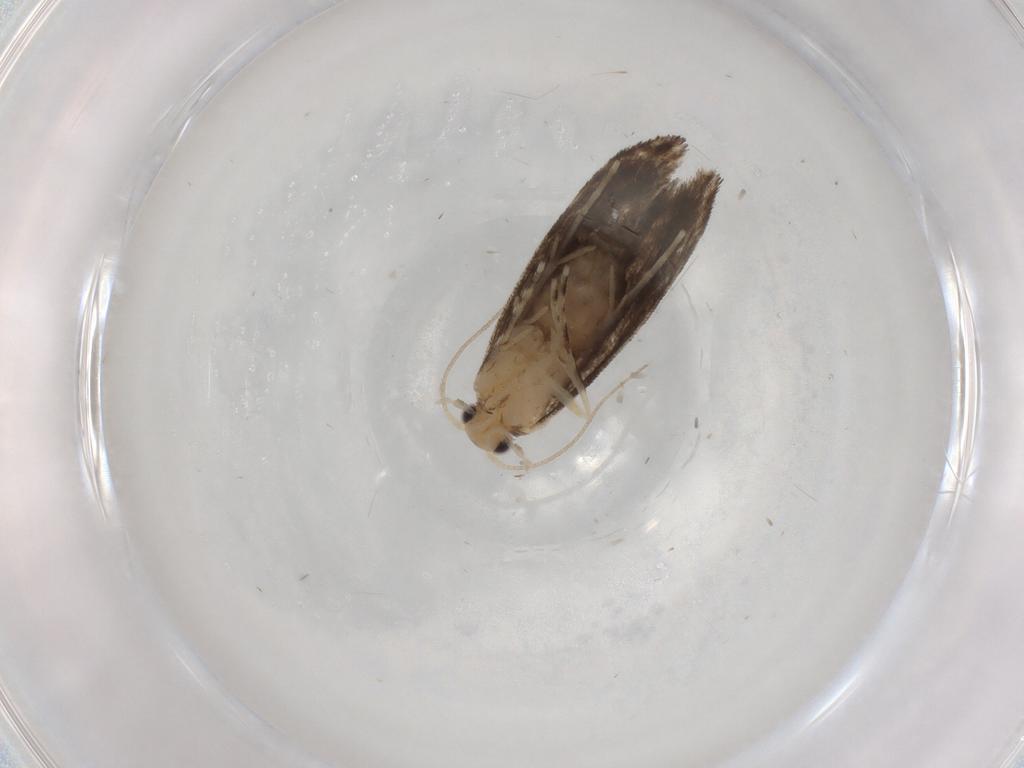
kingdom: Animalia
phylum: Arthropoda
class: Insecta
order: Lepidoptera
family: Tineidae
